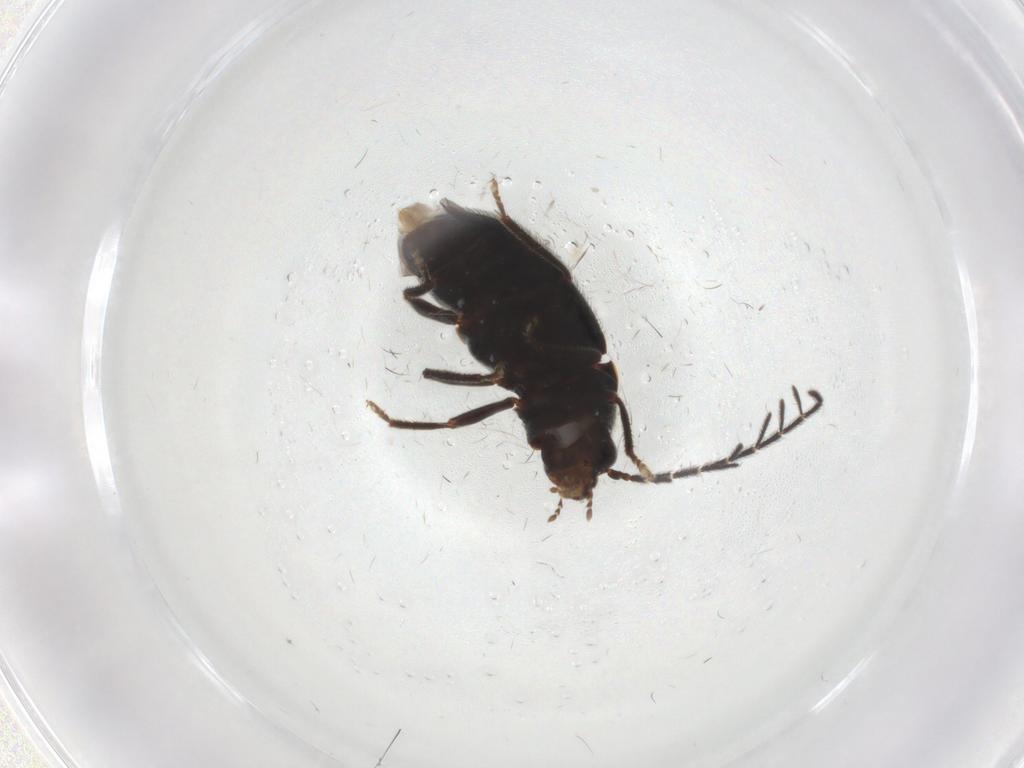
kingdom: Animalia
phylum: Arthropoda
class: Insecta
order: Coleoptera
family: Ptilodactylidae
